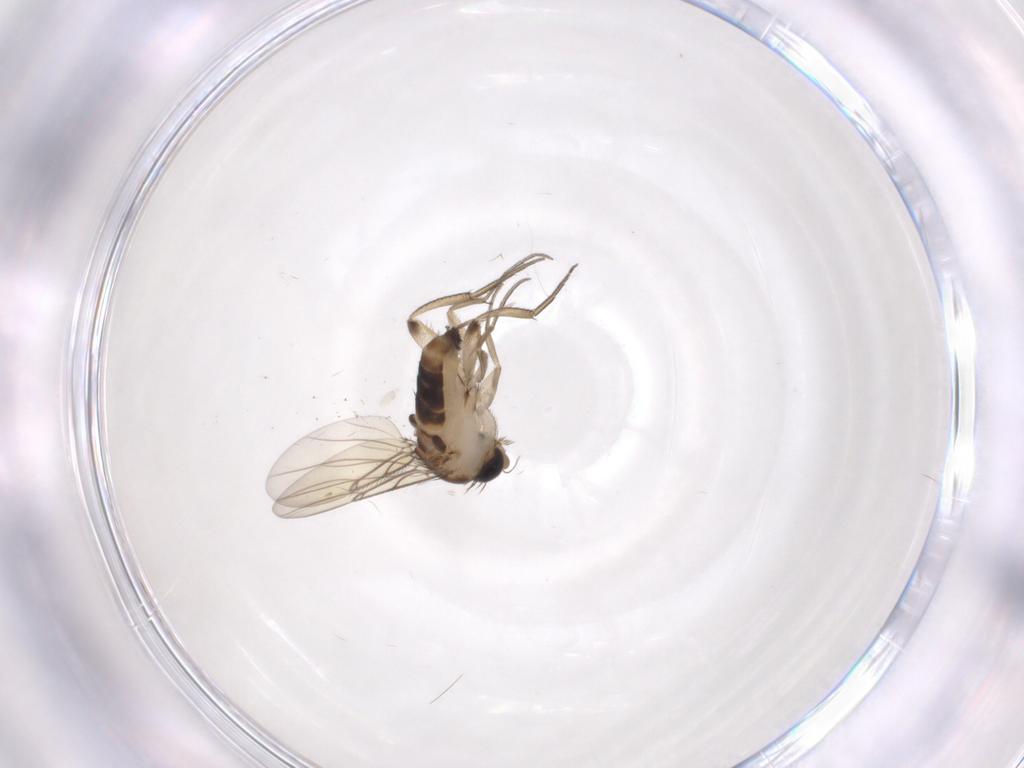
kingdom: Animalia
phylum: Arthropoda
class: Insecta
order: Diptera
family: Phoridae
